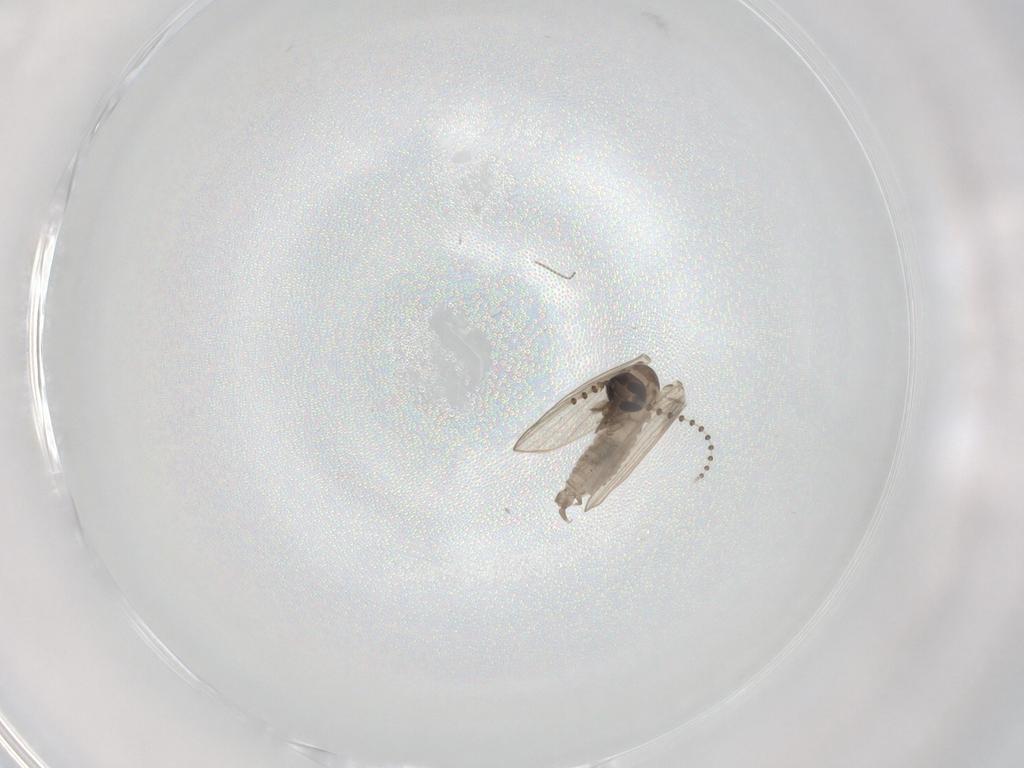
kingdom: Animalia
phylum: Arthropoda
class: Insecta
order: Diptera
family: Psychodidae
